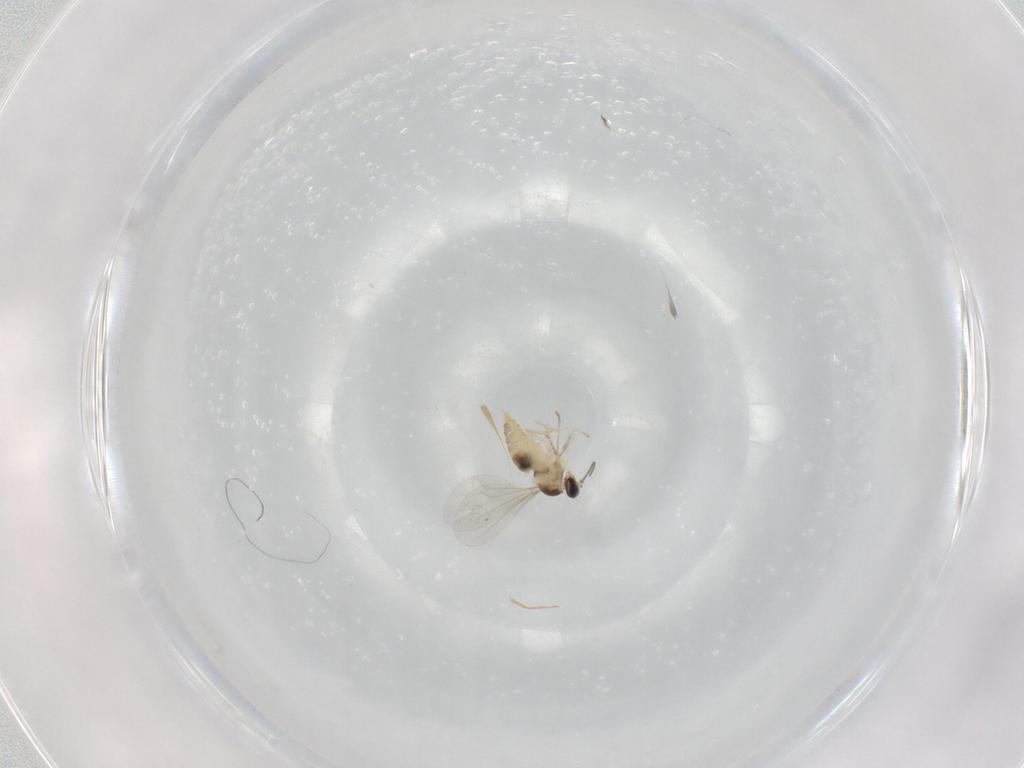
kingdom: Animalia
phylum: Arthropoda
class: Insecta
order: Diptera
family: Cecidomyiidae
